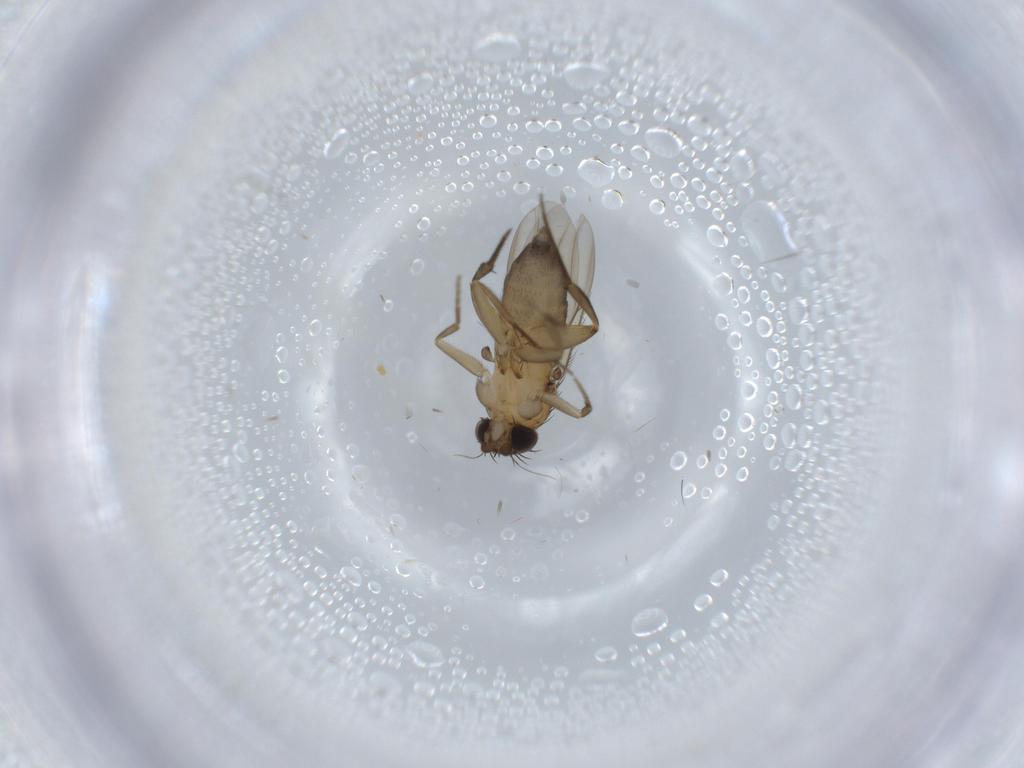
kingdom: Animalia
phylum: Arthropoda
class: Insecta
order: Diptera
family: Phoridae
